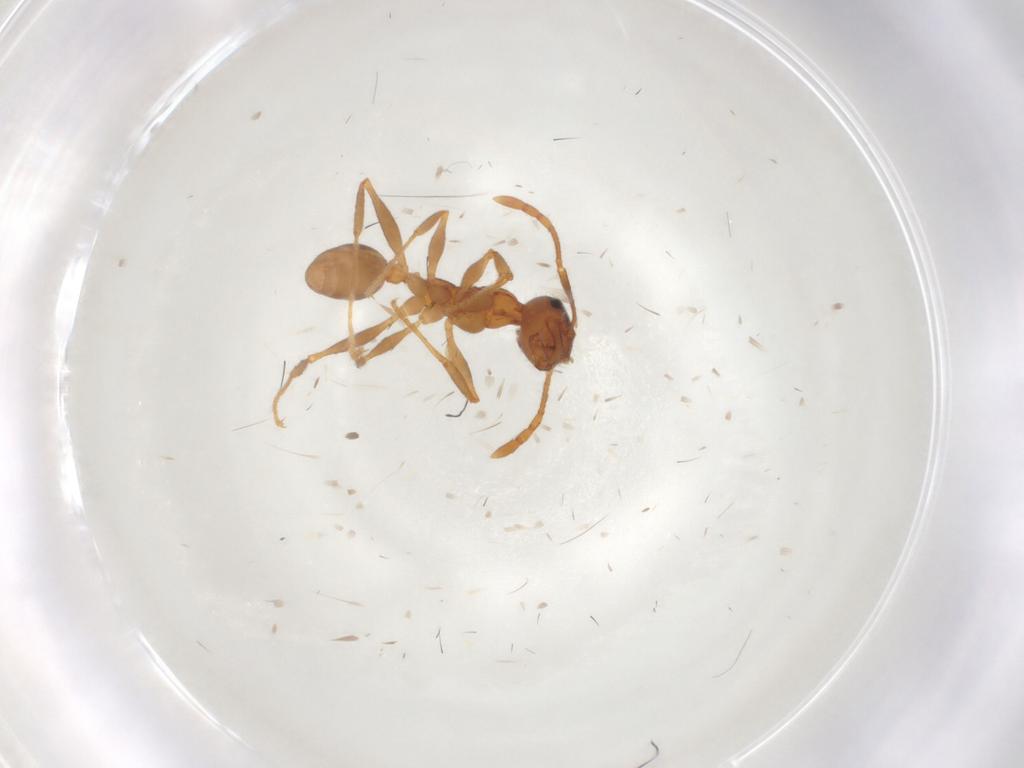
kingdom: Animalia
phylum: Arthropoda
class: Insecta
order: Hymenoptera
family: Formicidae
